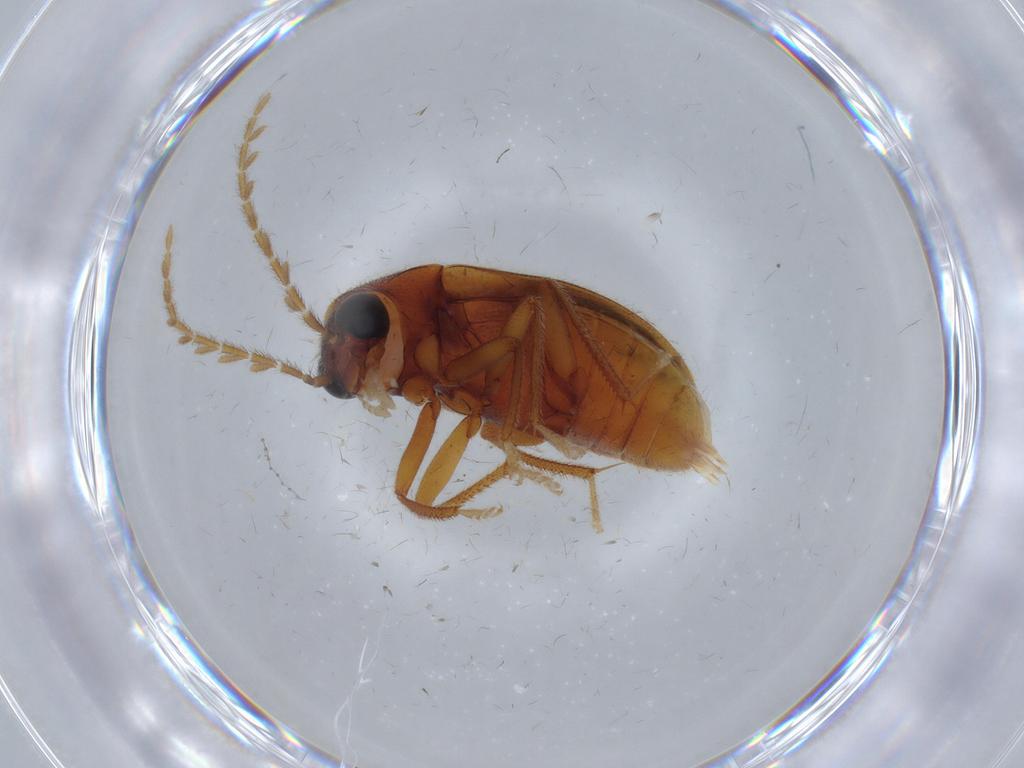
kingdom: Animalia
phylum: Arthropoda
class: Insecta
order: Coleoptera
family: Ptilodactylidae
